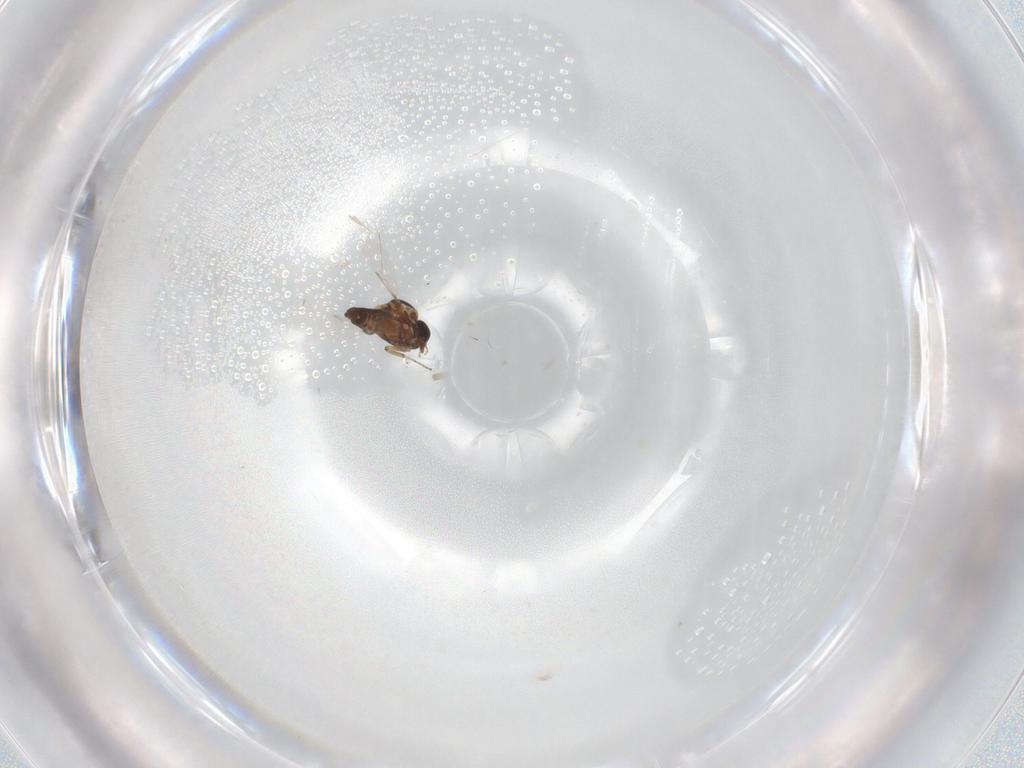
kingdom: Animalia
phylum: Arthropoda
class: Insecta
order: Diptera
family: Ceratopogonidae
